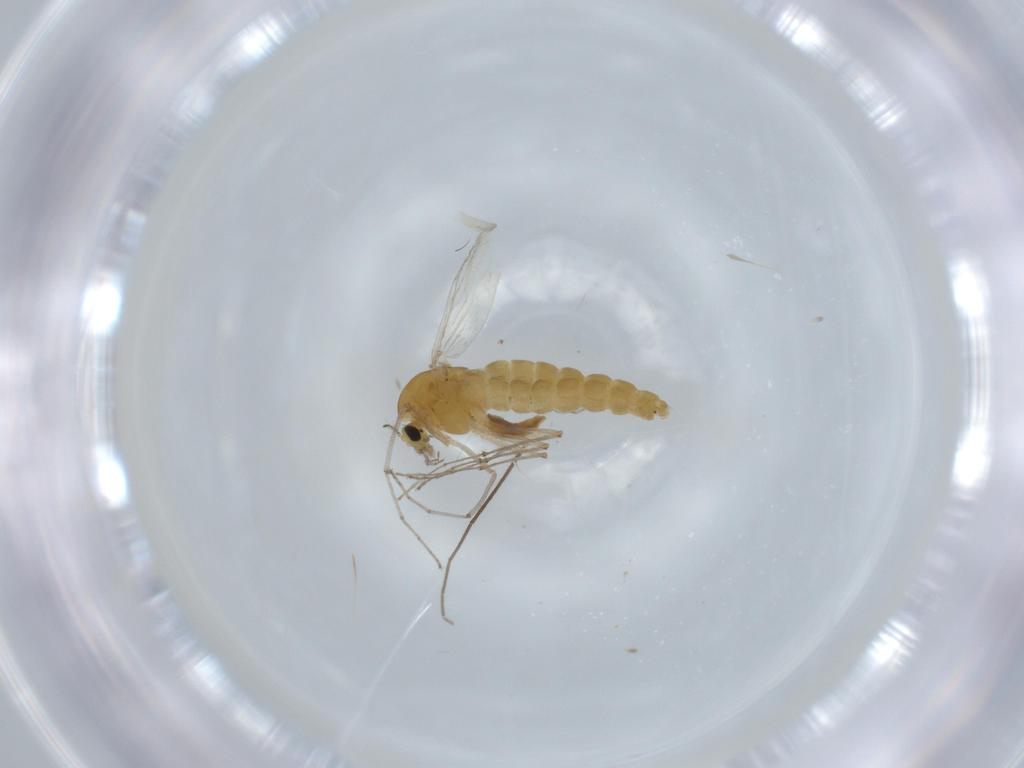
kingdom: Animalia
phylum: Arthropoda
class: Insecta
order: Diptera
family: Chironomidae
